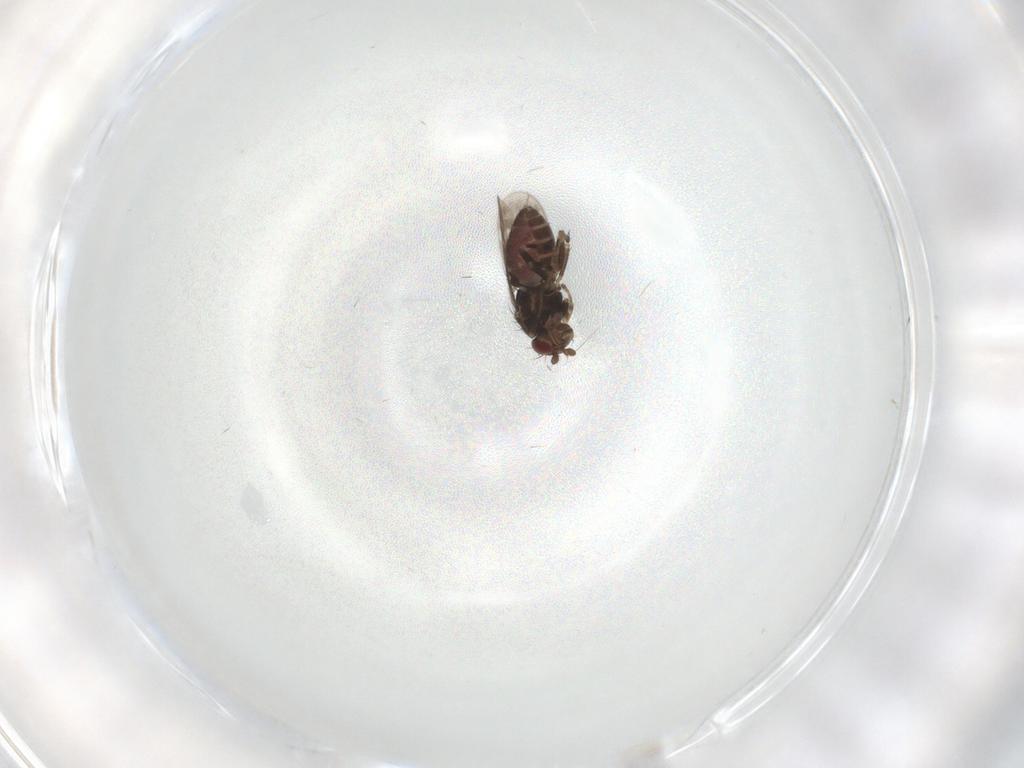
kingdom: Animalia
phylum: Arthropoda
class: Insecta
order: Diptera
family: Sphaeroceridae
